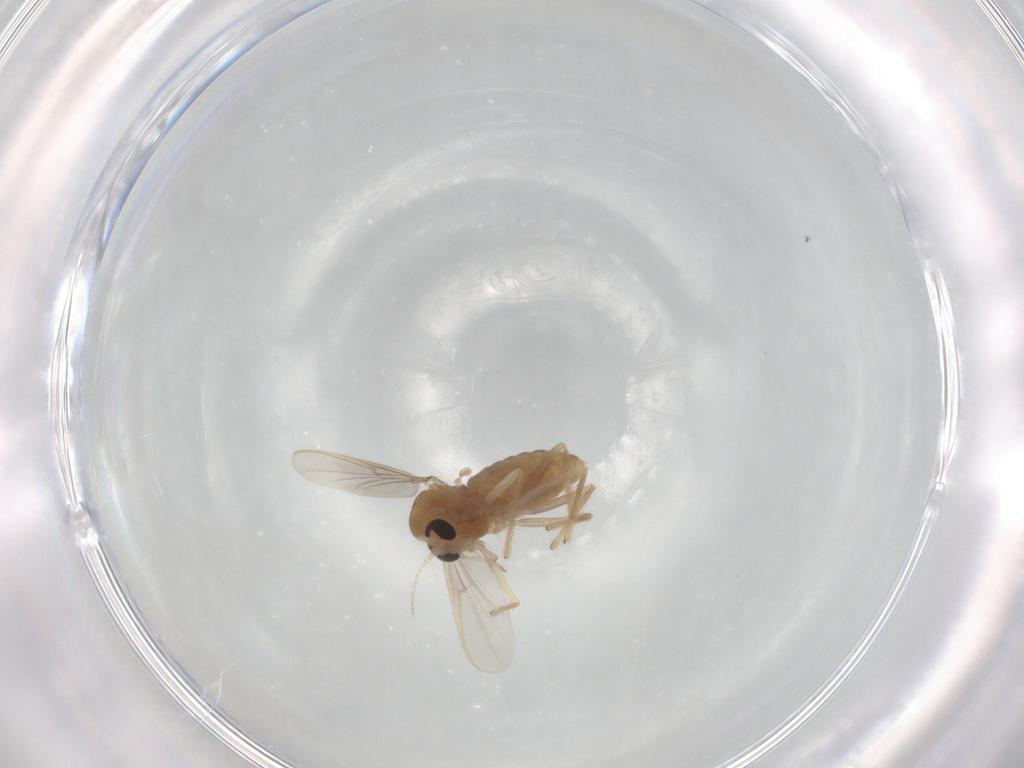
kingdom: Animalia
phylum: Arthropoda
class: Insecta
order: Diptera
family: Chironomidae
